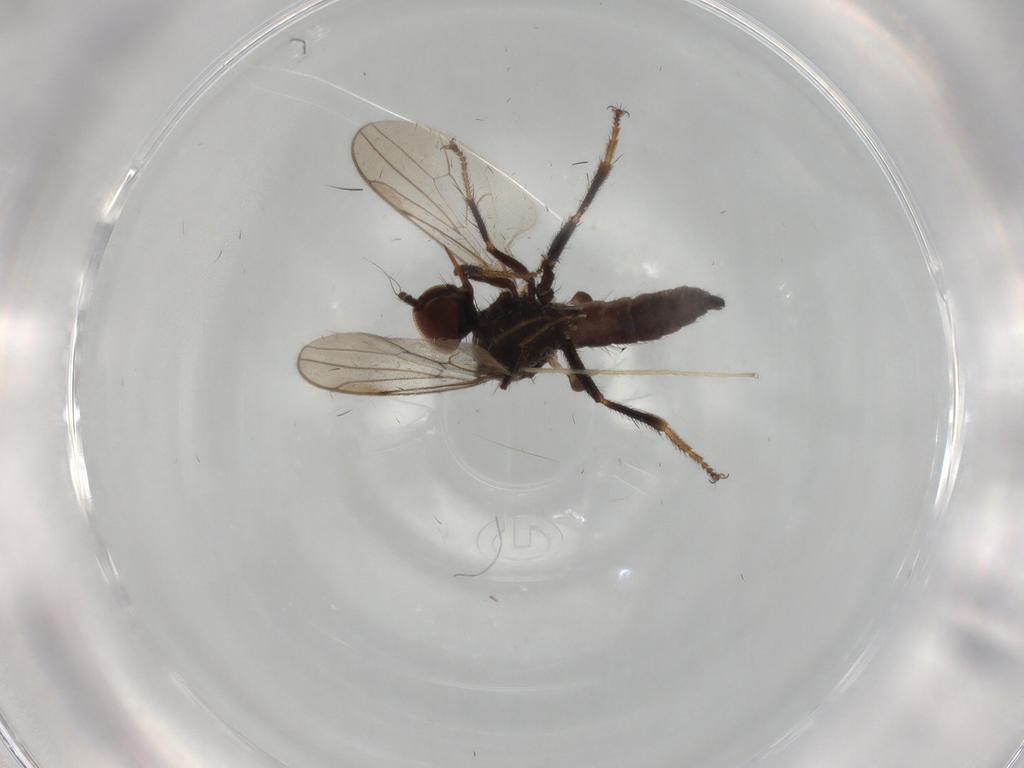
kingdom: Animalia
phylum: Arthropoda
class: Insecta
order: Diptera
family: Hybotidae
